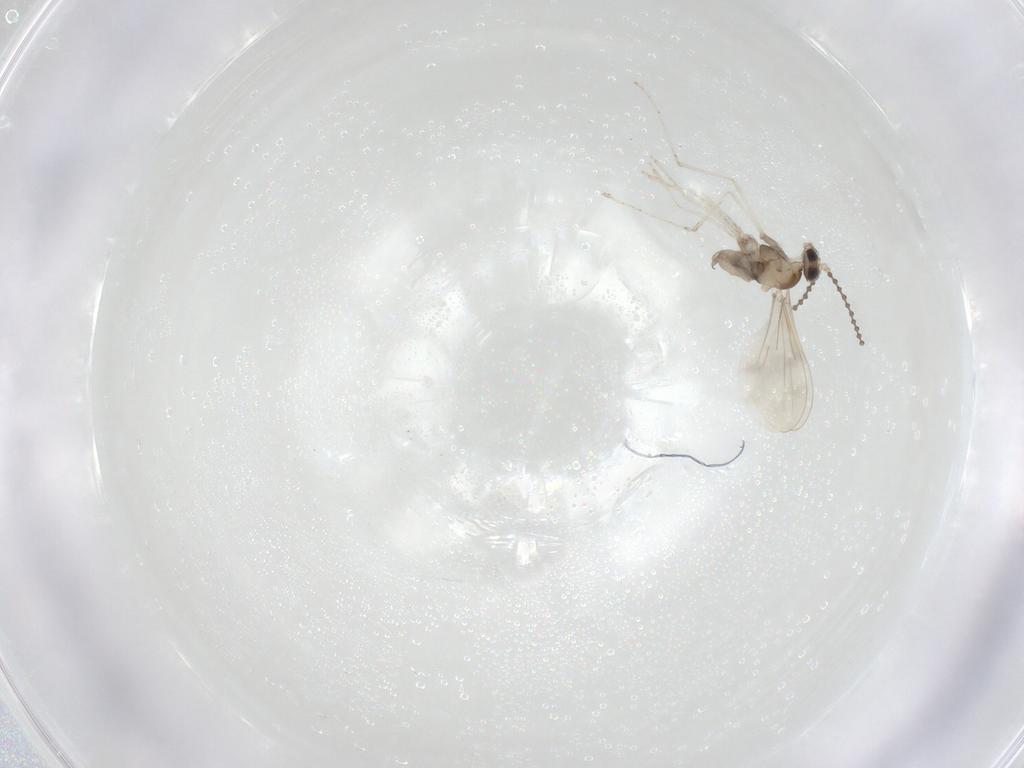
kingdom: Animalia
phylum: Arthropoda
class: Insecta
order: Diptera
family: Cecidomyiidae
